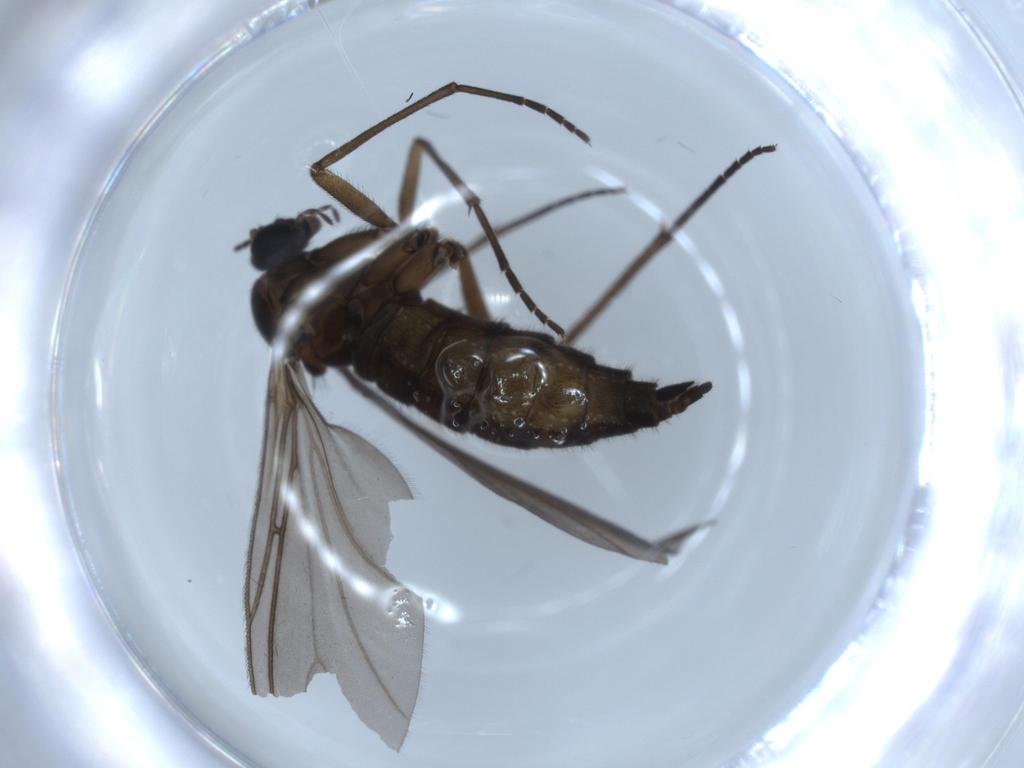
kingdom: Animalia
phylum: Arthropoda
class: Insecta
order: Diptera
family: Sciaridae
